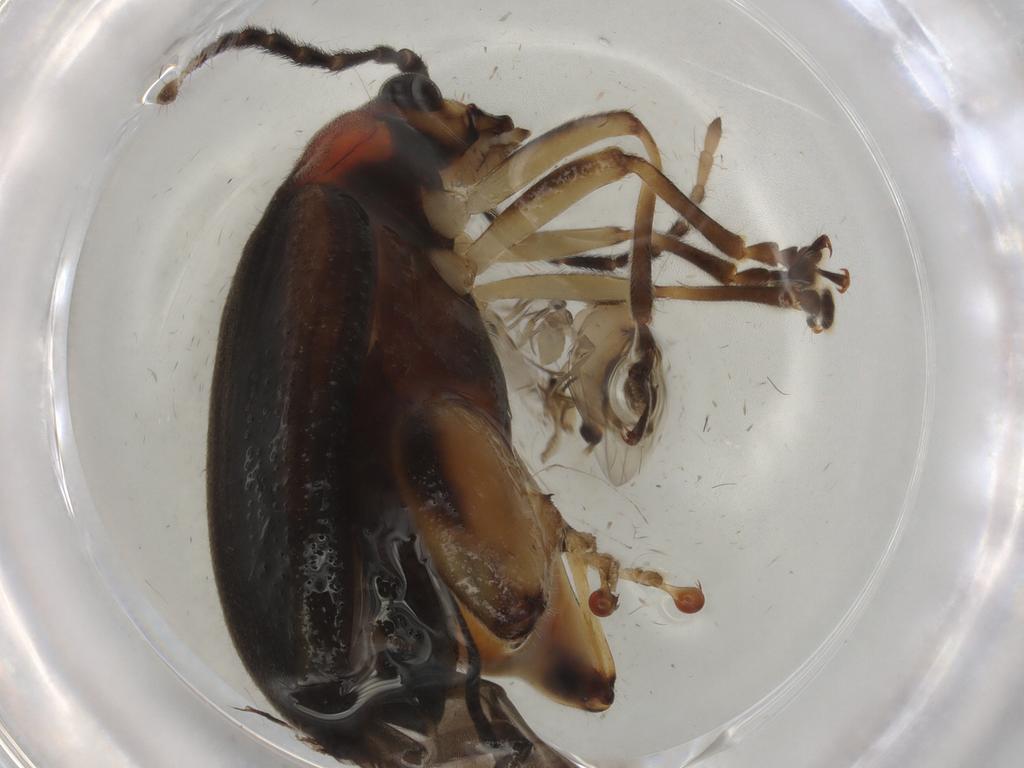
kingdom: Animalia
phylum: Arthropoda
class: Insecta
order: Diptera
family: Phoridae
